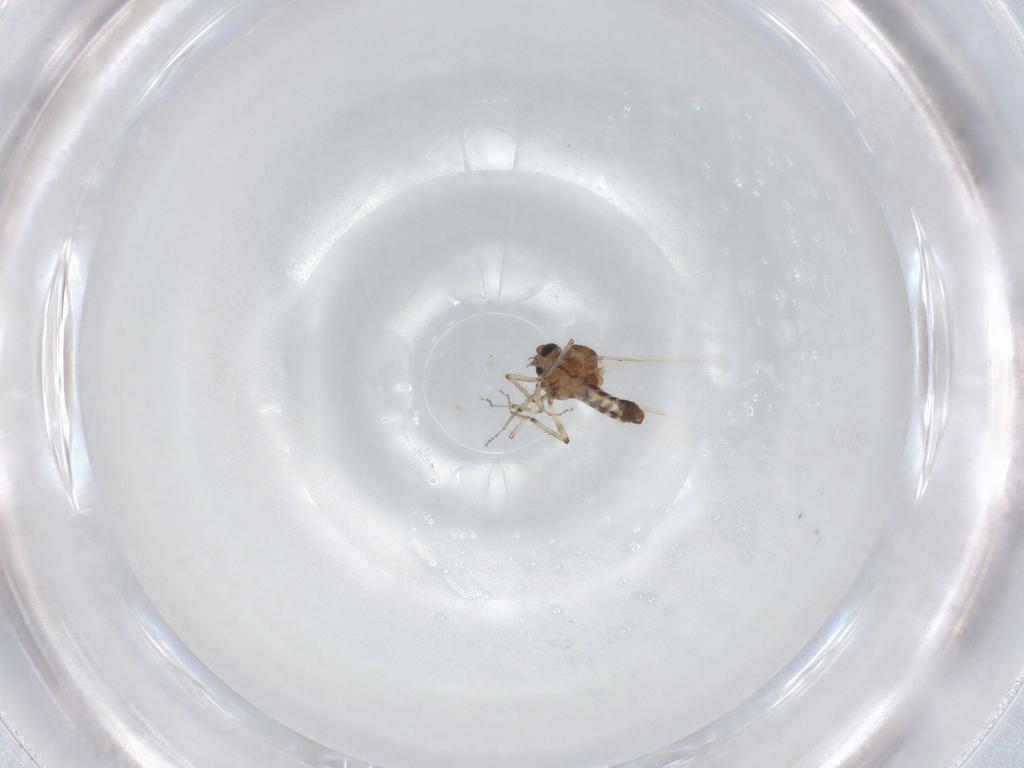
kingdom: Animalia
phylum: Arthropoda
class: Insecta
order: Diptera
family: Ceratopogonidae
